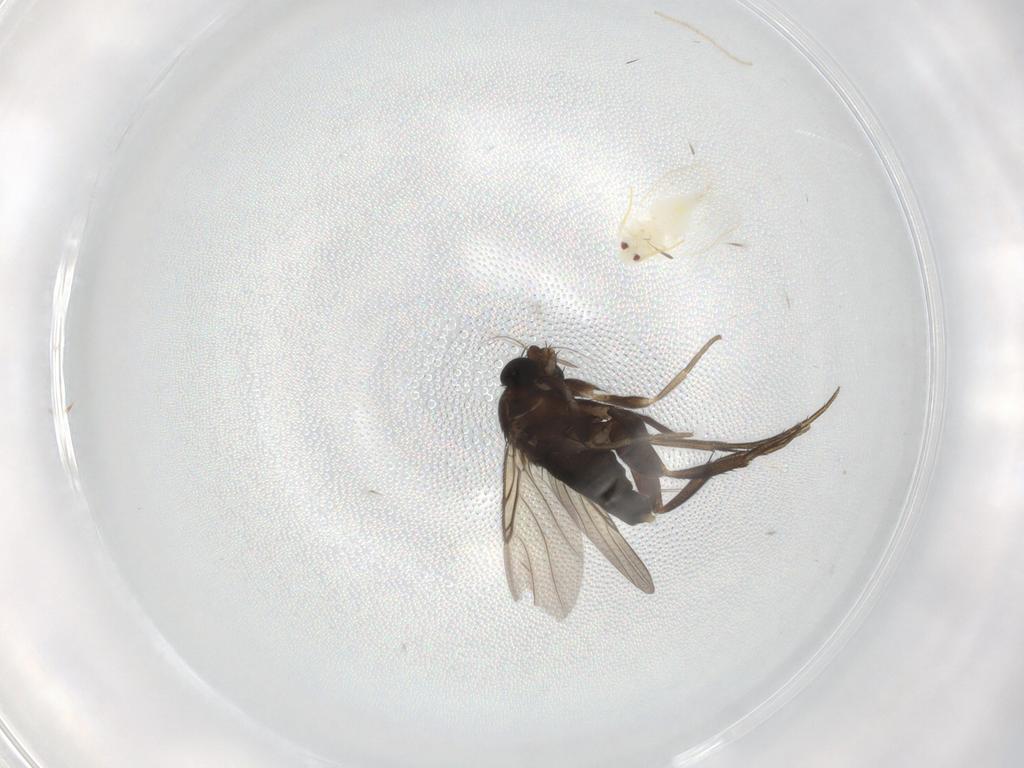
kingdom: Animalia
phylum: Arthropoda
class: Insecta
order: Diptera
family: Phoridae
